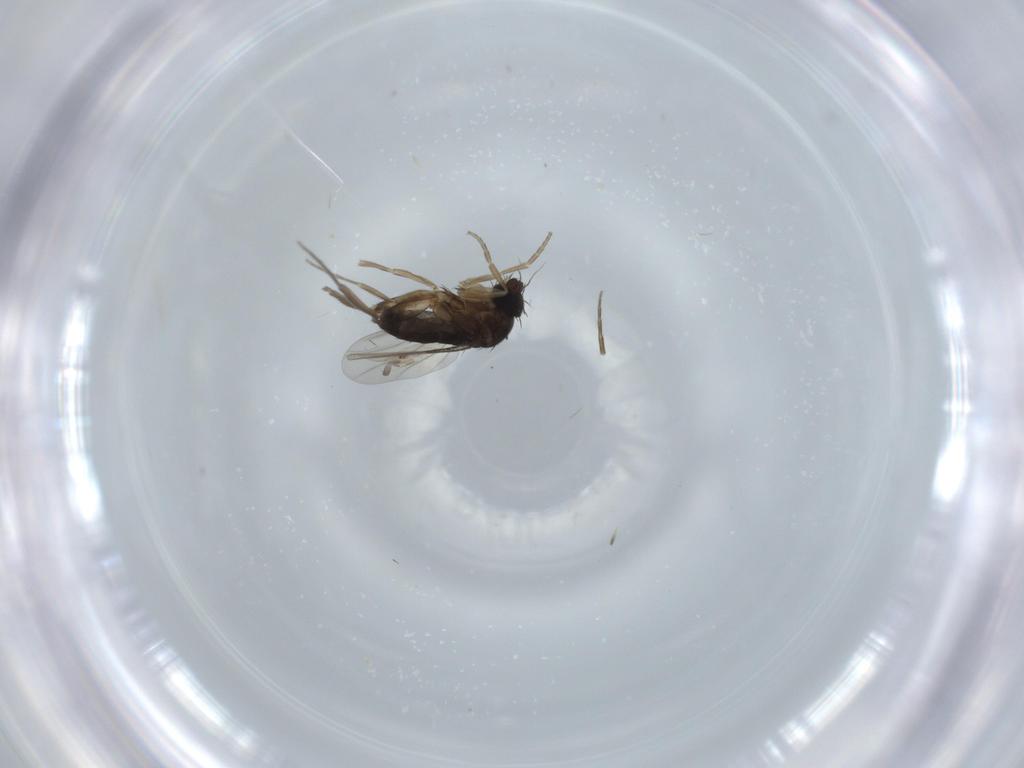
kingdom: Animalia
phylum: Arthropoda
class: Insecta
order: Diptera
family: Phoridae
